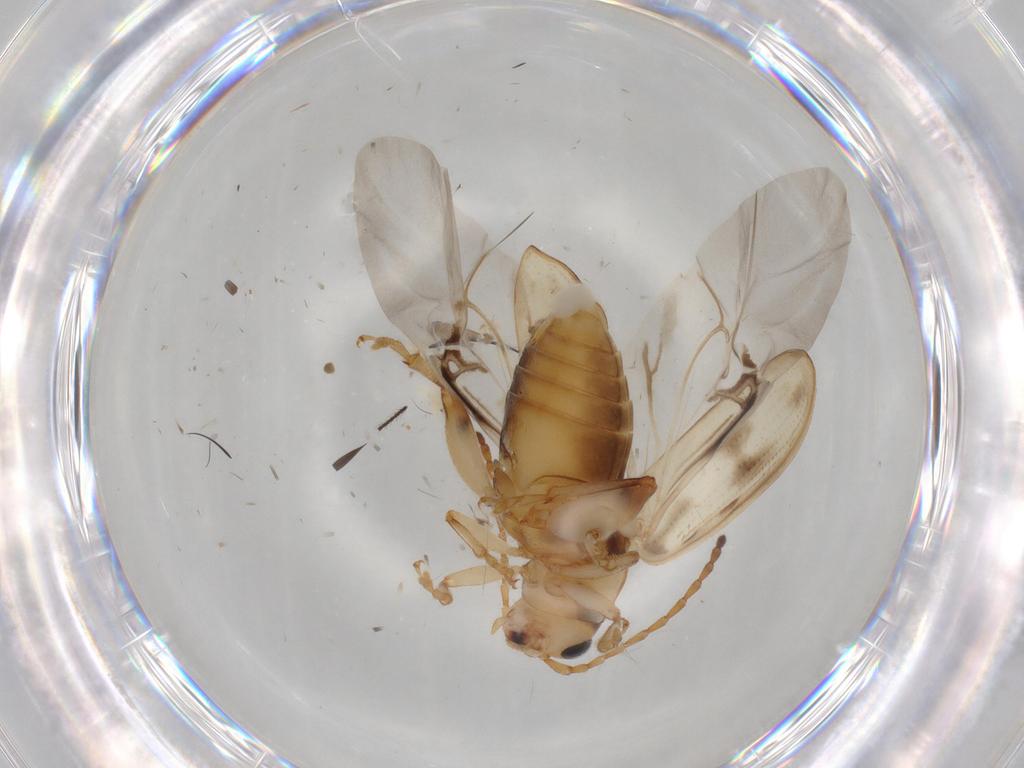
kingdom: Animalia
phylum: Arthropoda
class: Insecta
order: Coleoptera
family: Chrysomelidae
